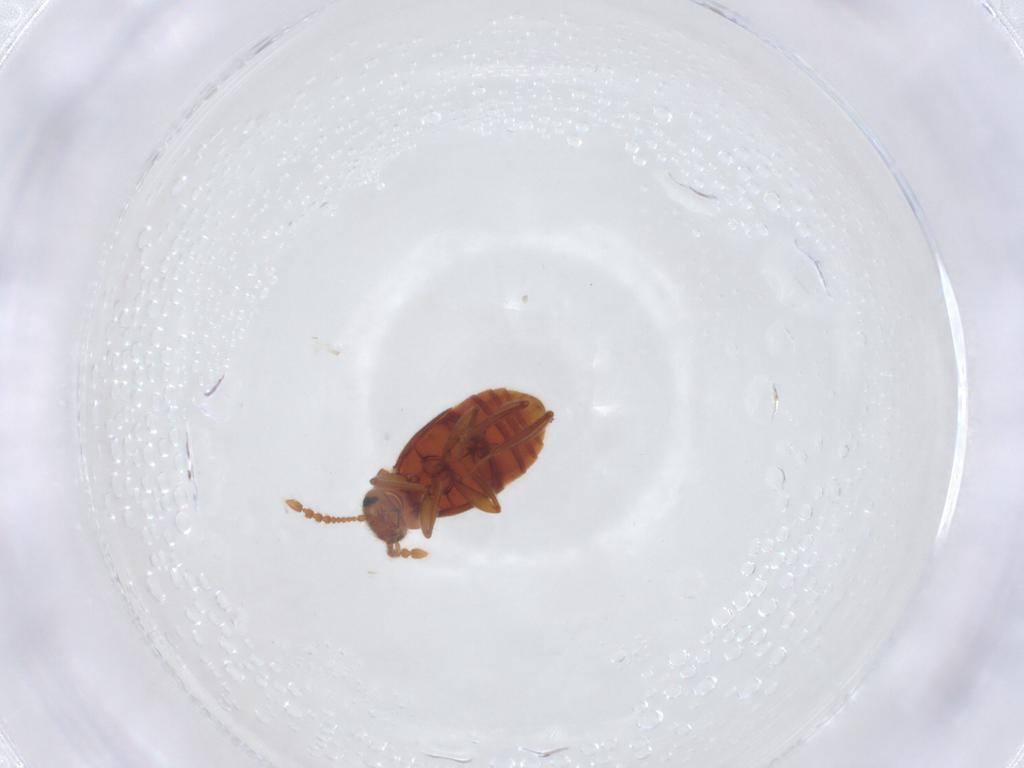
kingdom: Animalia
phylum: Arthropoda
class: Insecta
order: Coleoptera
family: Staphylinidae
